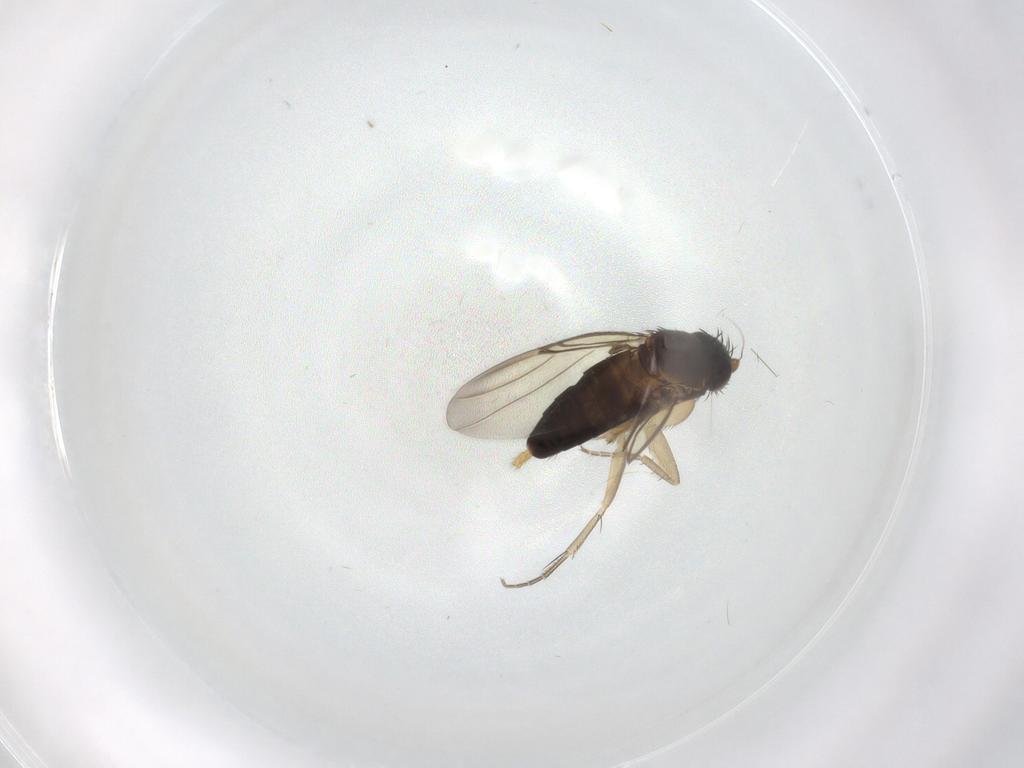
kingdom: Animalia
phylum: Arthropoda
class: Insecta
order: Diptera
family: Phoridae
